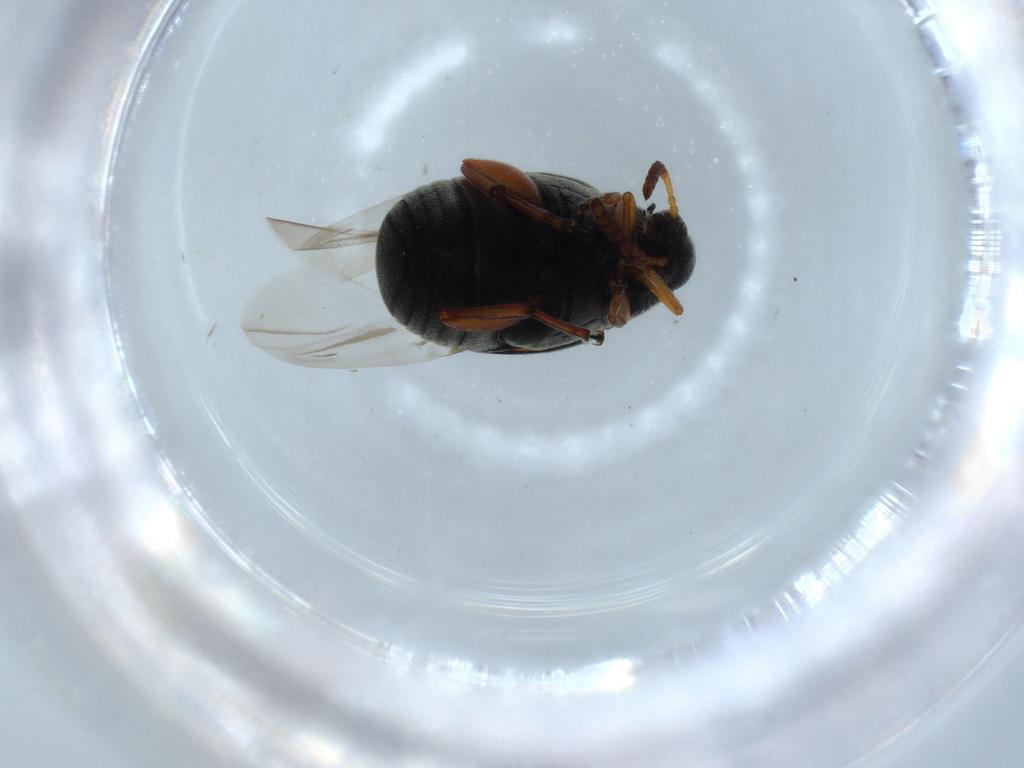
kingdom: Animalia
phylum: Arthropoda
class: Insecta
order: Coleoptera
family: Chrysomelidae
